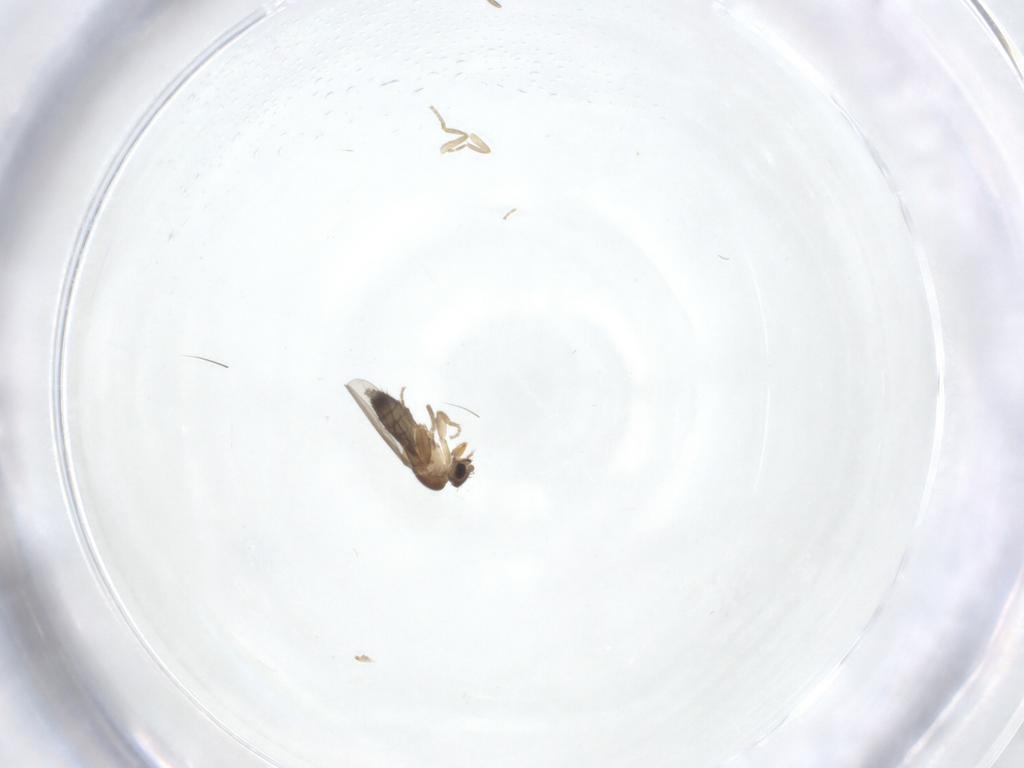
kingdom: Animalia
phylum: Arthropoda
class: Insecta
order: Diptera
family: Phoridae
